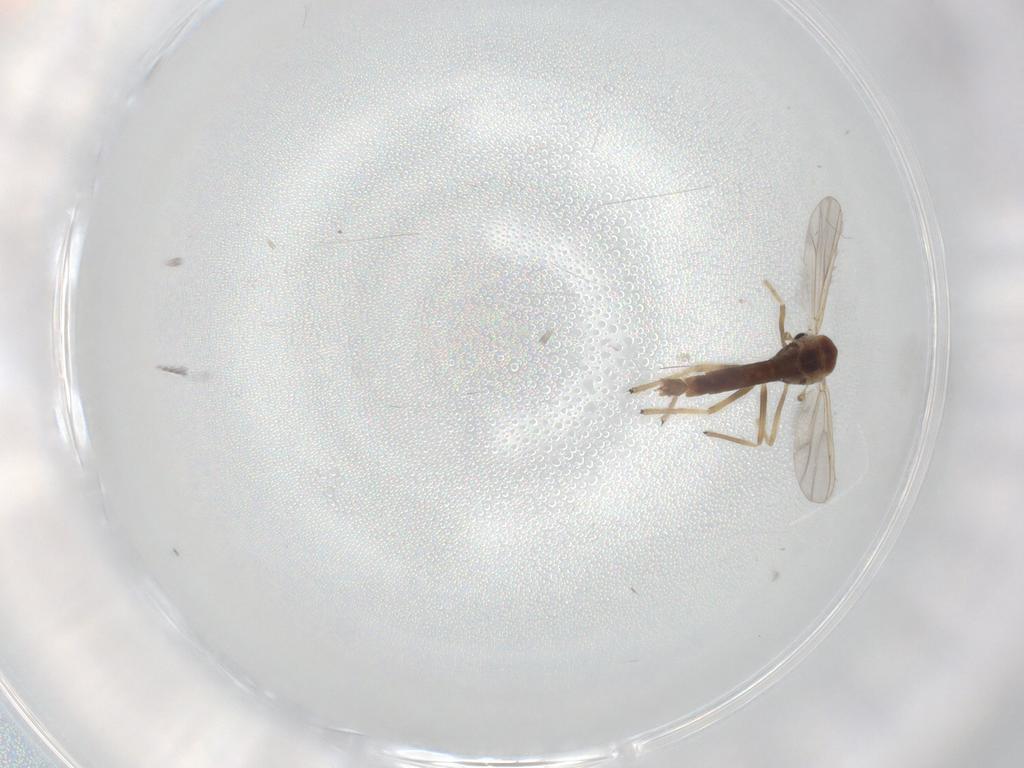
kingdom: Animalia
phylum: Arthropoda
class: Insecta
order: Diptera
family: Chironomidae
